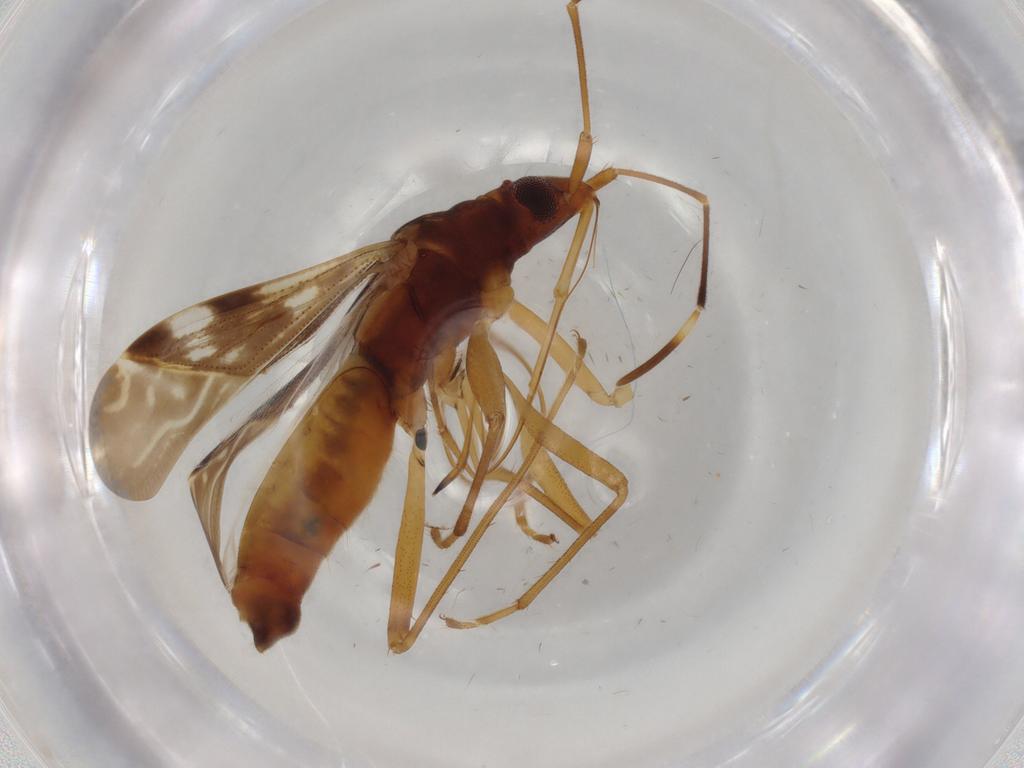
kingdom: Animalia
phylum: Arthropoda
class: Insecta
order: Hemiptera
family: Rhyparochromidae
